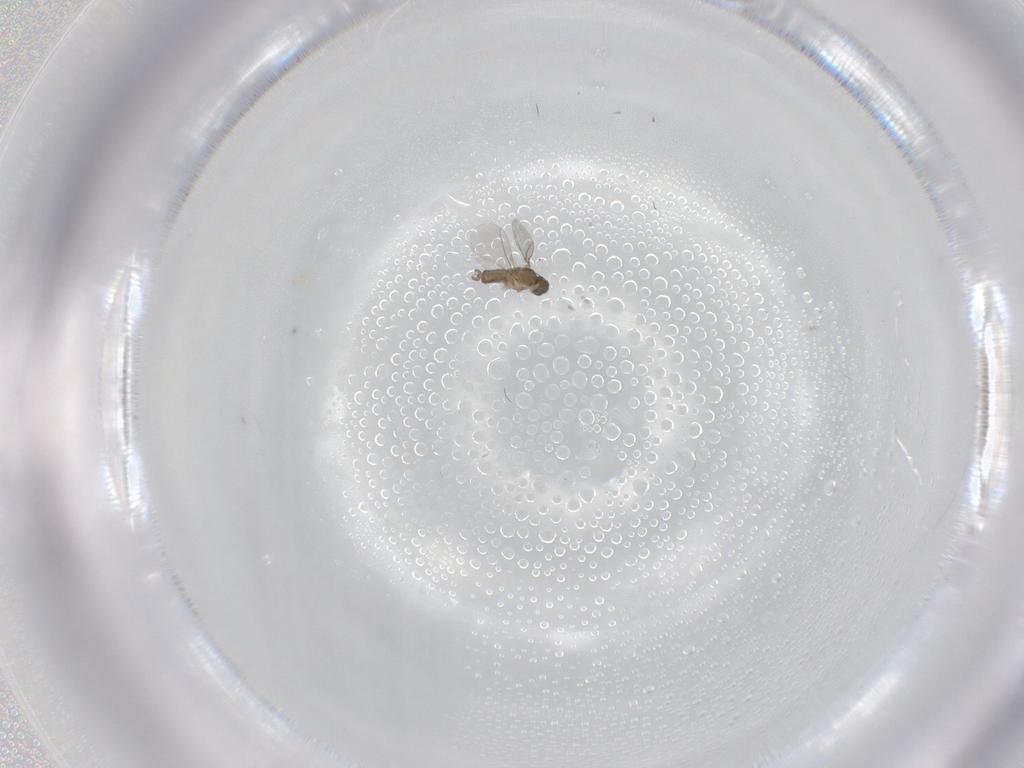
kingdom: Animalia
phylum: Arthropoda
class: Insecta
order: Diptera
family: Cecidomyiidae
